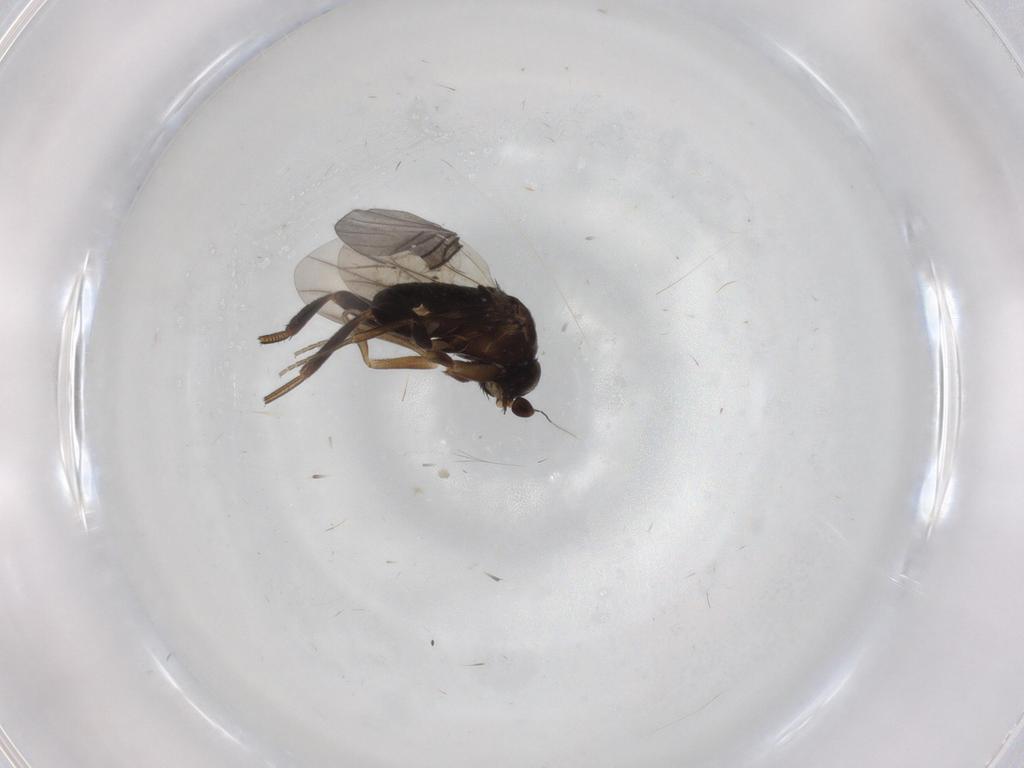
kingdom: Animalia
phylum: Arthropoda
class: Insecta
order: Diptera
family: Sciaridae
